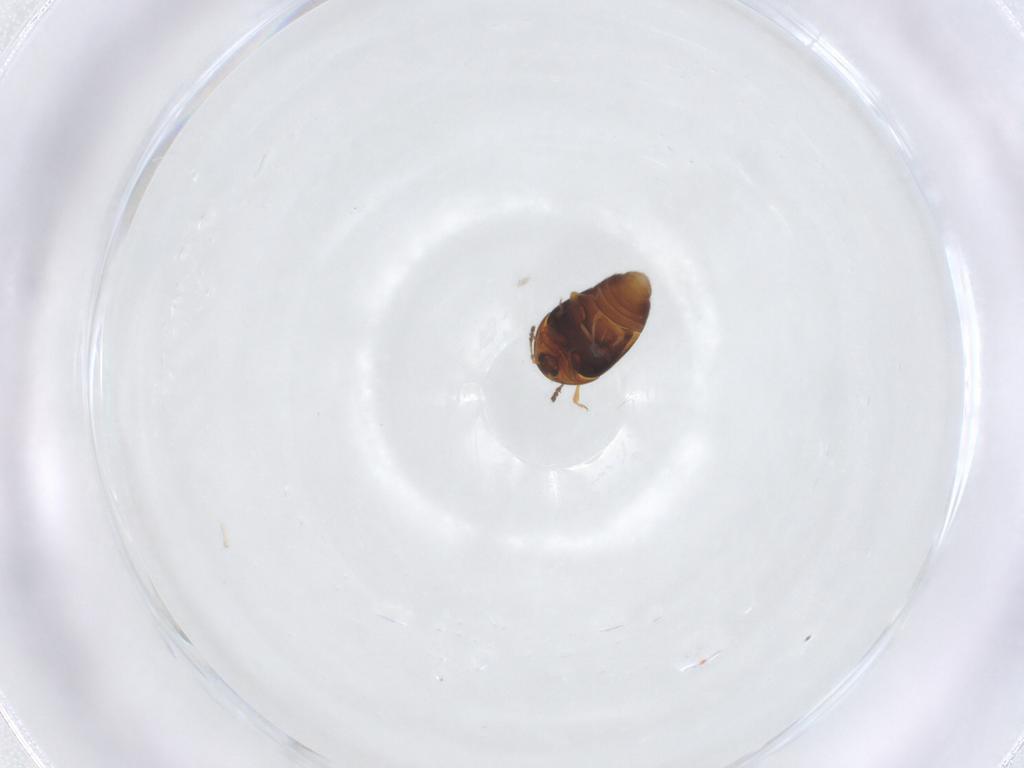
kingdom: Animalia
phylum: Arthropoda
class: Insecta
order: Coleoptera
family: Corylophidae
